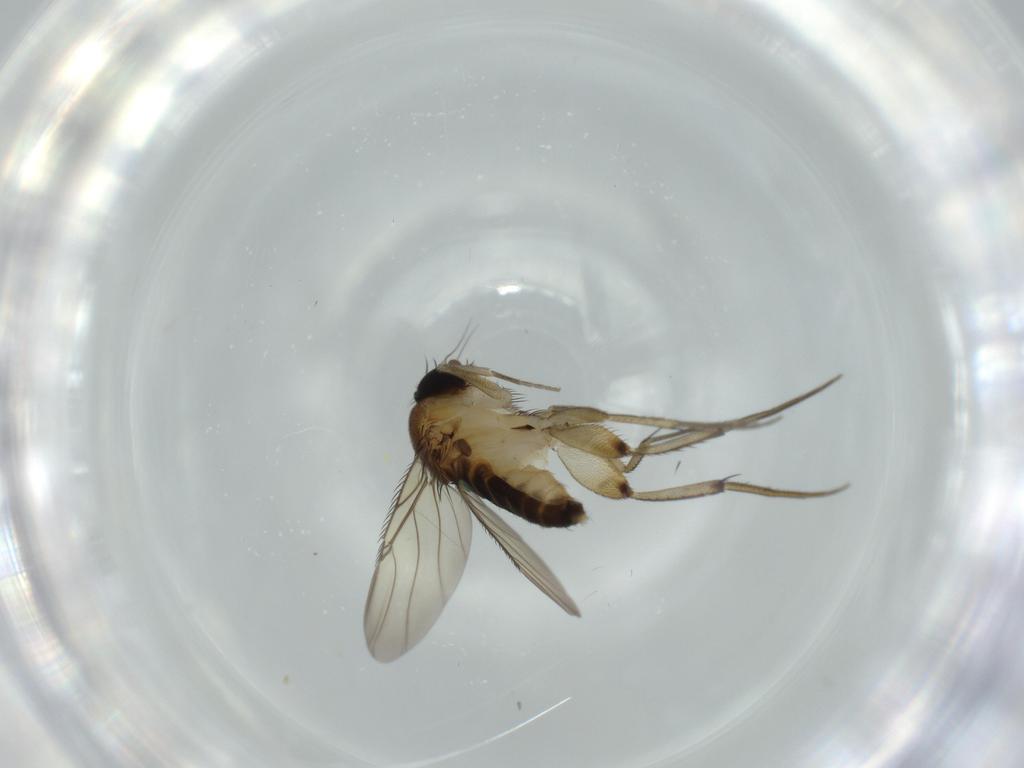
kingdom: Animalia
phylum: Arthropoda
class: Insecta
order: Diptera
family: Phoridae
